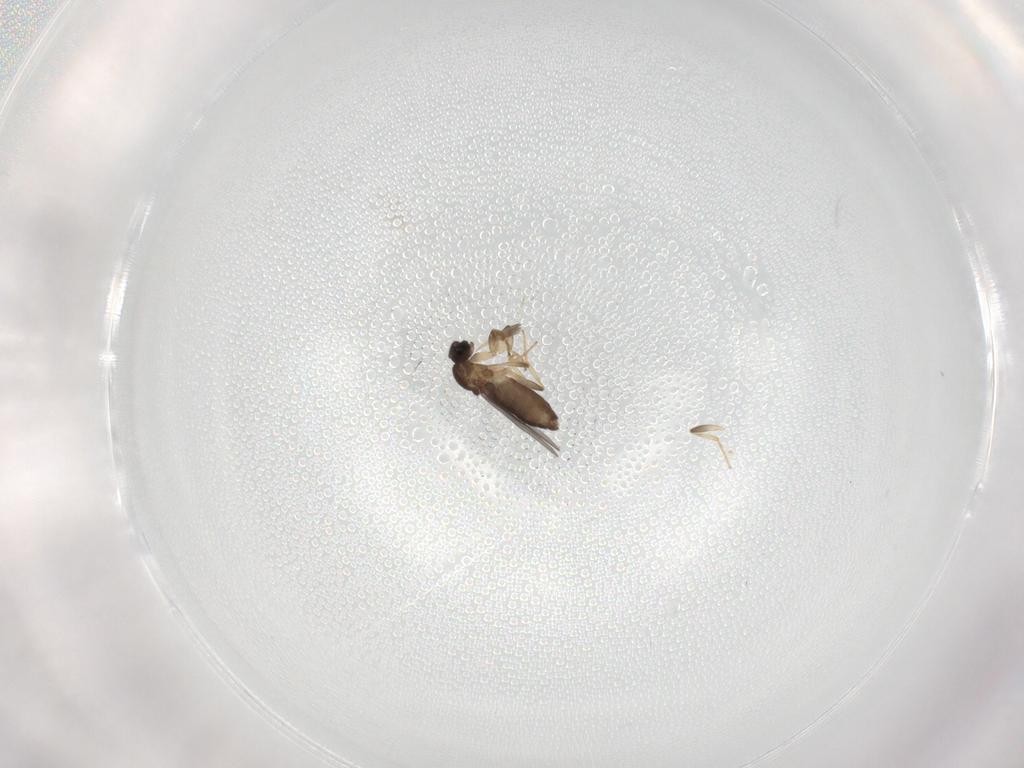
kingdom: Animalia
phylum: Arthropoda
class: Insecta
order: Diptera
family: Phoridae
